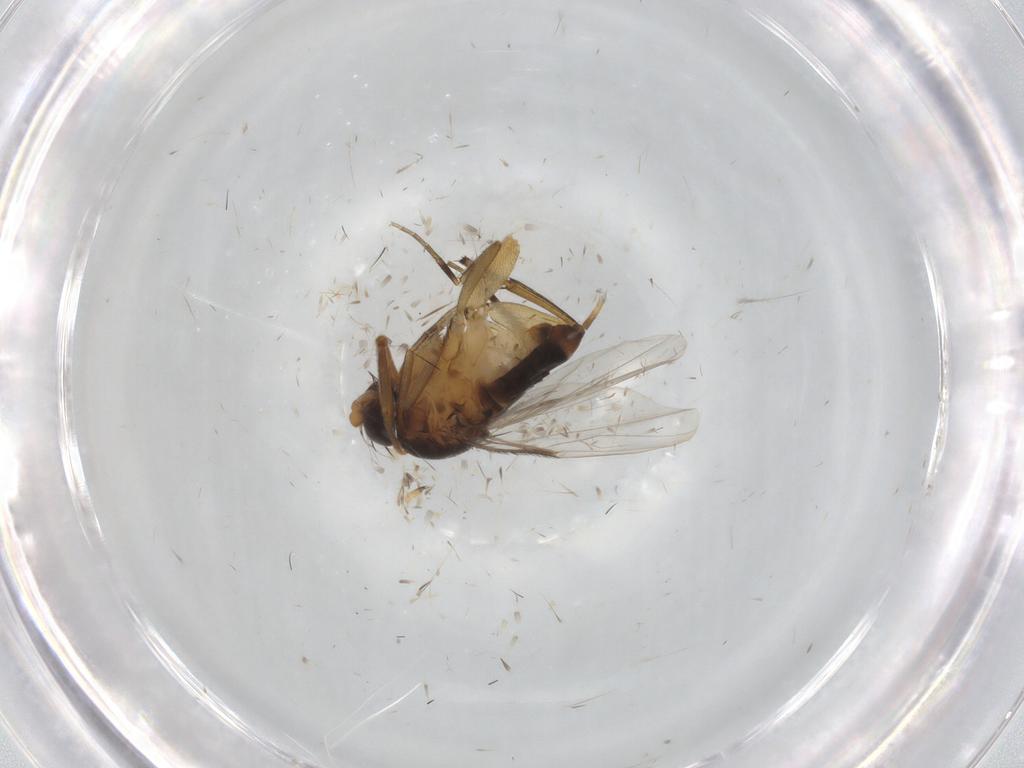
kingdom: Animalia
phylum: Arthropoda
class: Insecta
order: Diptera
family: Phoridae
